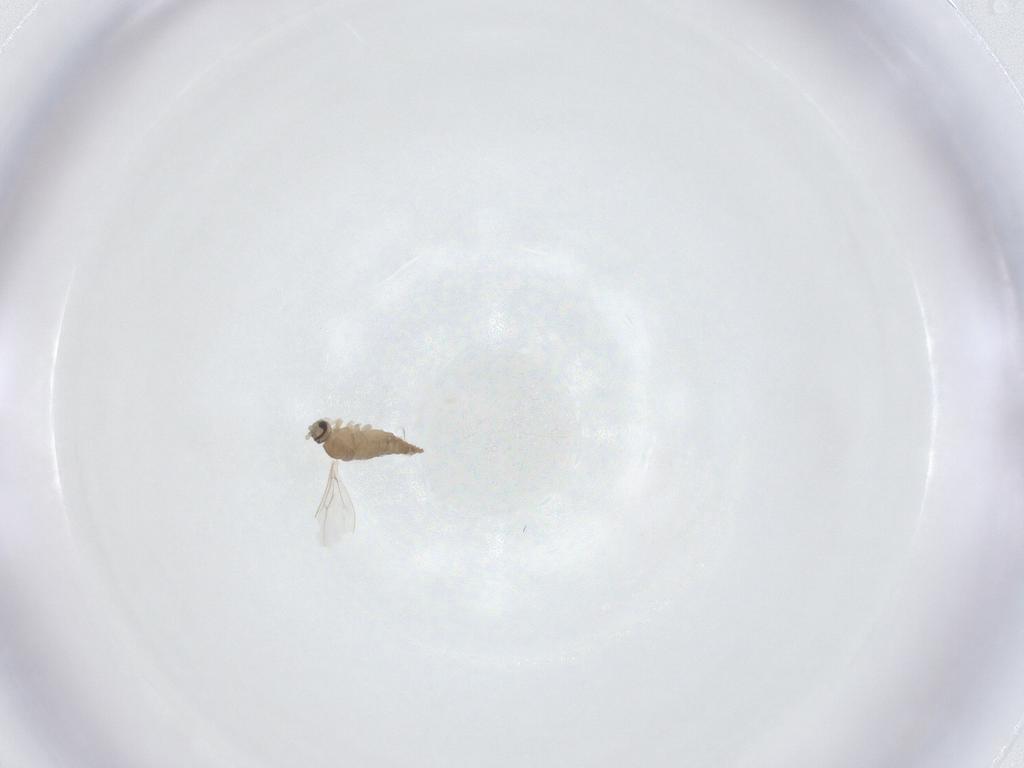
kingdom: Animalia
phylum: Arthropoda
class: Insecta
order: Diptera
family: Cecidomyiidae
